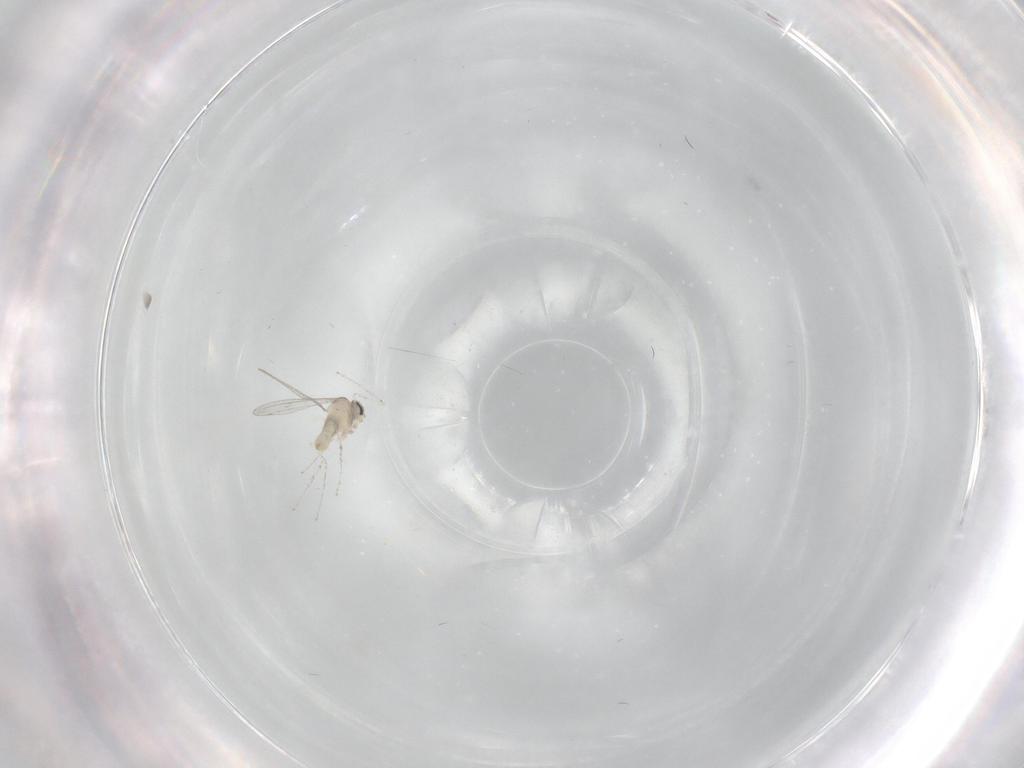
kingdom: Animalia
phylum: Arthropoda
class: Insecta
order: Diptera
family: Cecidomyiidae
